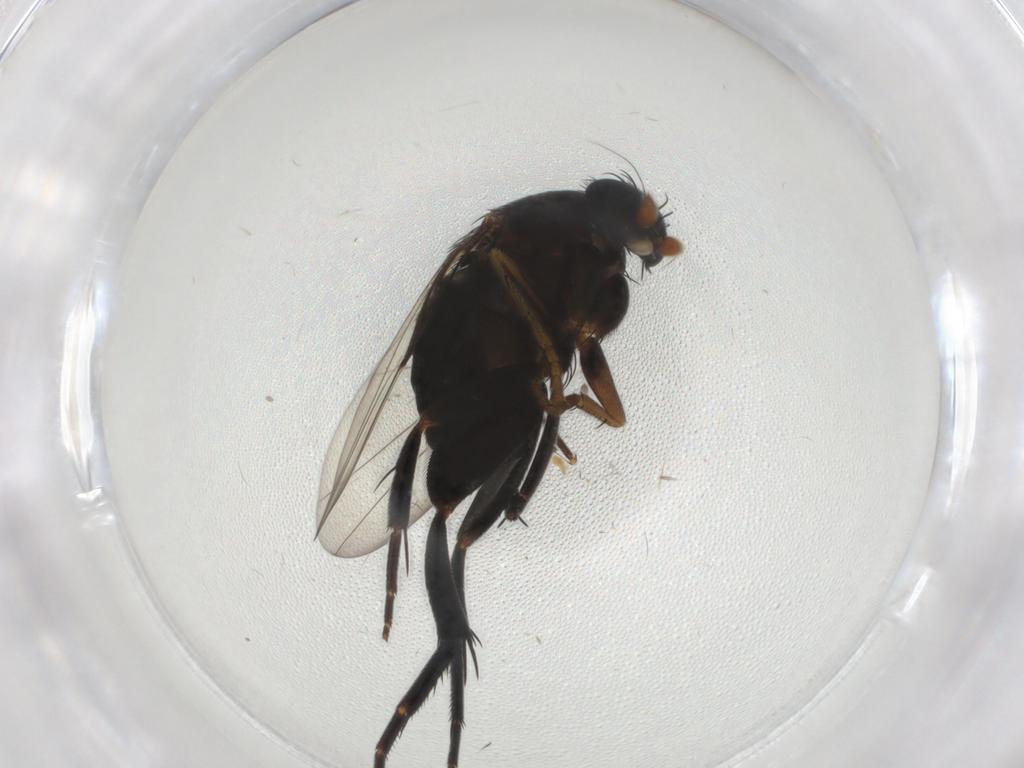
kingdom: Animalia
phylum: Arthropoda
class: Insecta
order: Diptera
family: Phoridae
